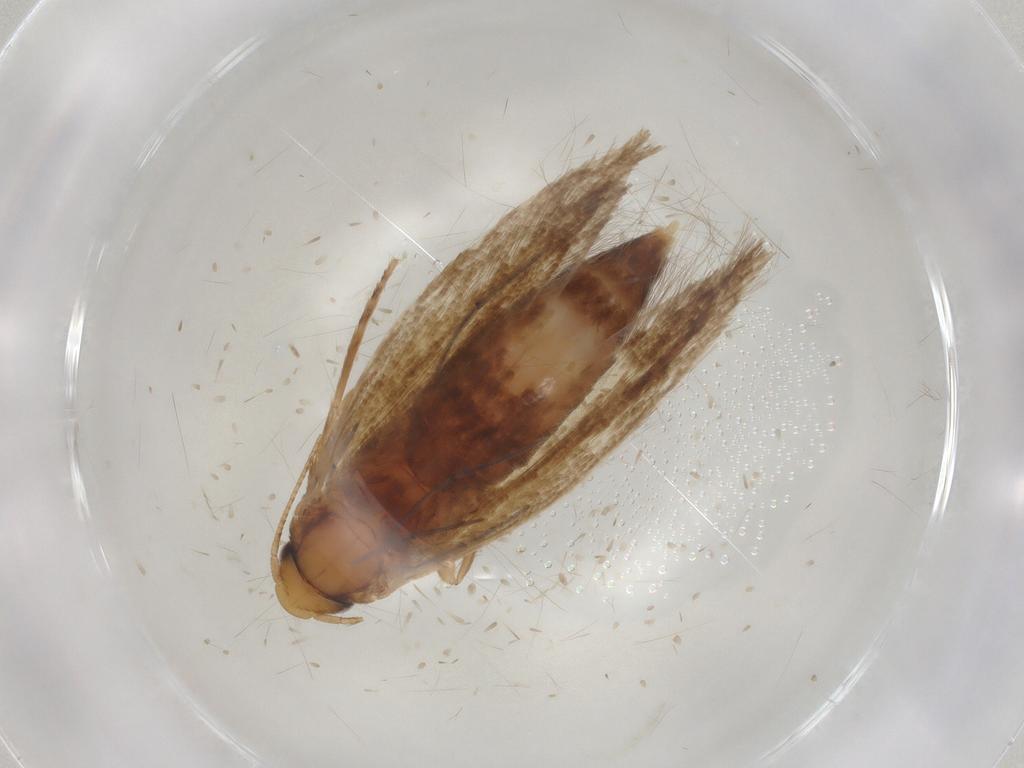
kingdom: Animalia
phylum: Arthropoda
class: Insecta
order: Lepidoptera
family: Tineidae
